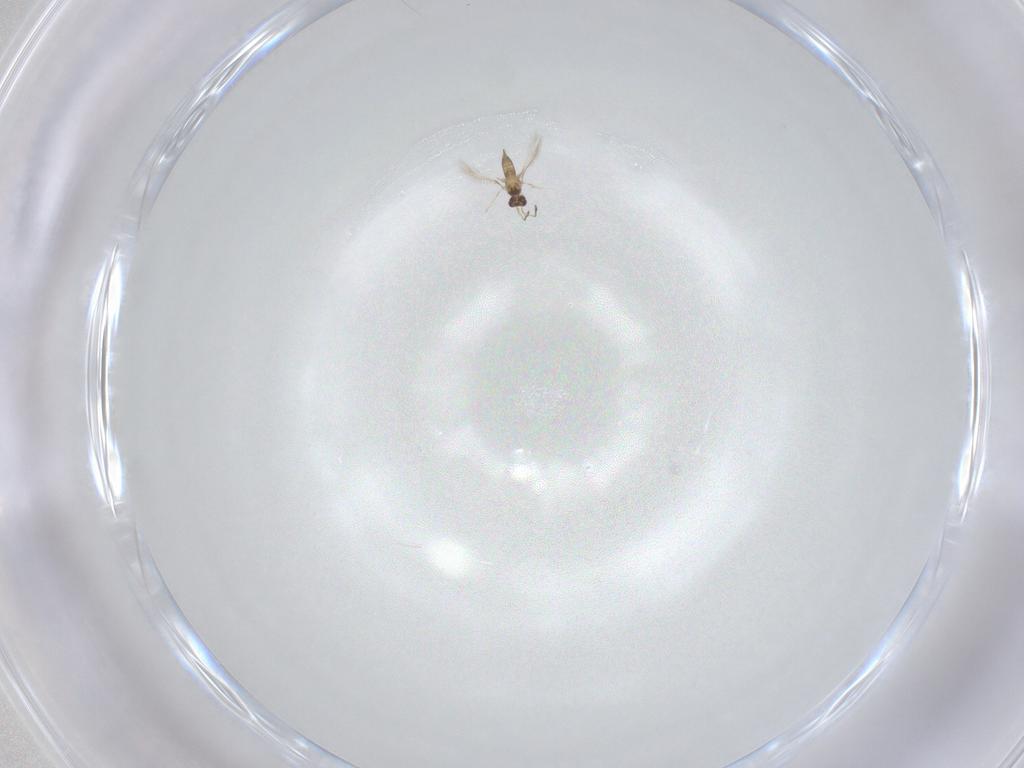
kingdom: Animalia
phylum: Arthropoda
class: Insecta
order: Hymenoptera
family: Mymaridae
